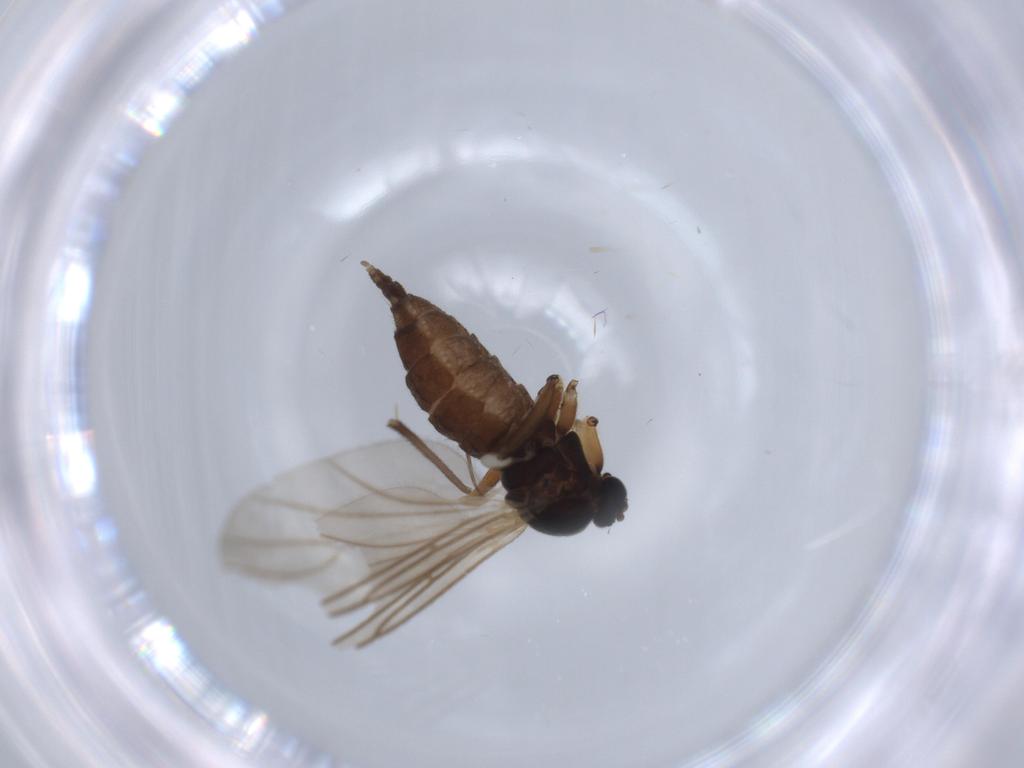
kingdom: Animalia
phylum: Arthropoda
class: Insecta
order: Diptera
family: Sciaridae
